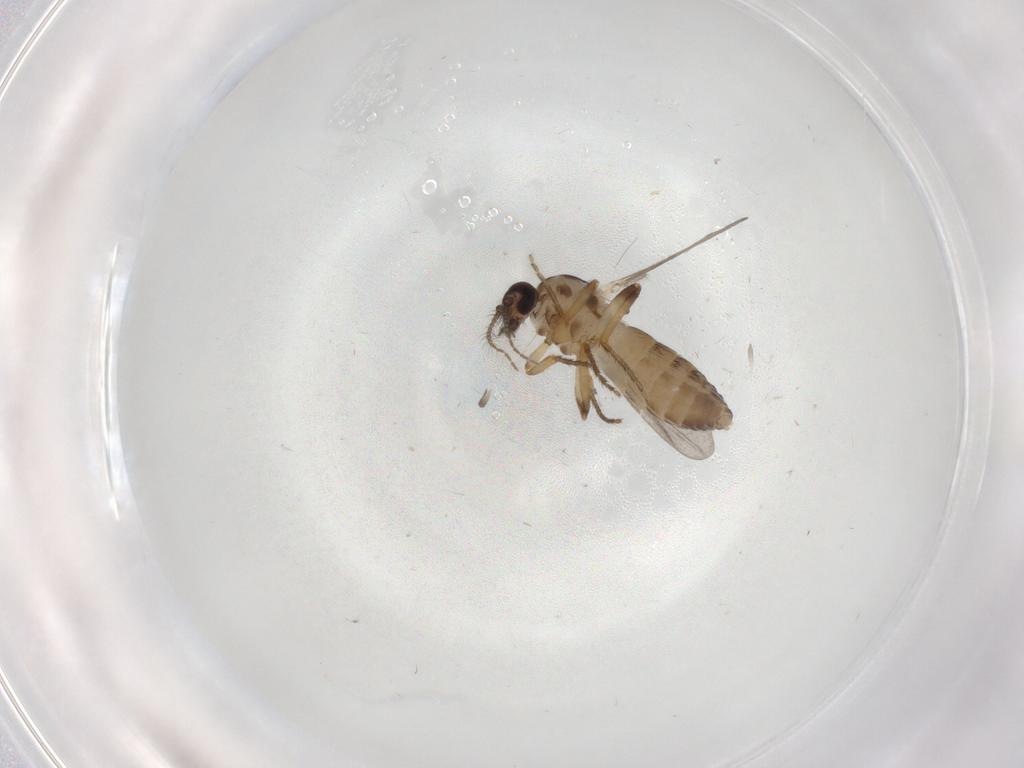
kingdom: Animalia
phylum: Arthropoda
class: Insecta
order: Diptera
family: Ceratopogonidae
